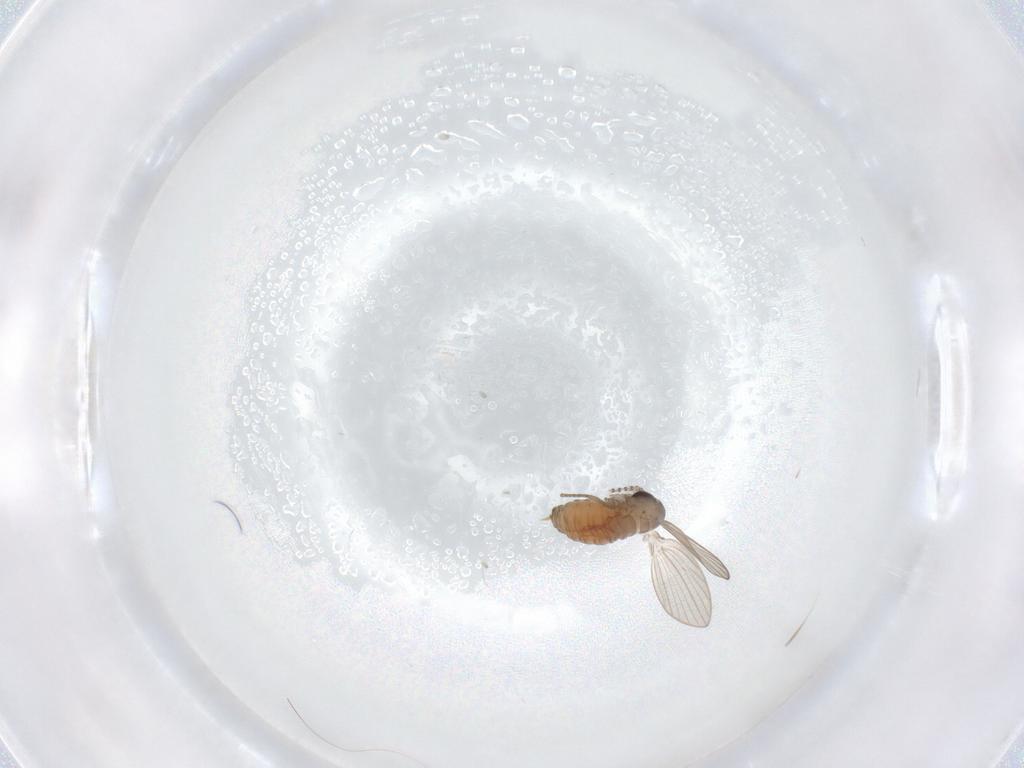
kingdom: Animalia
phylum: Arthropoda
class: Insecta
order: Diptera
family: Psychodidae
